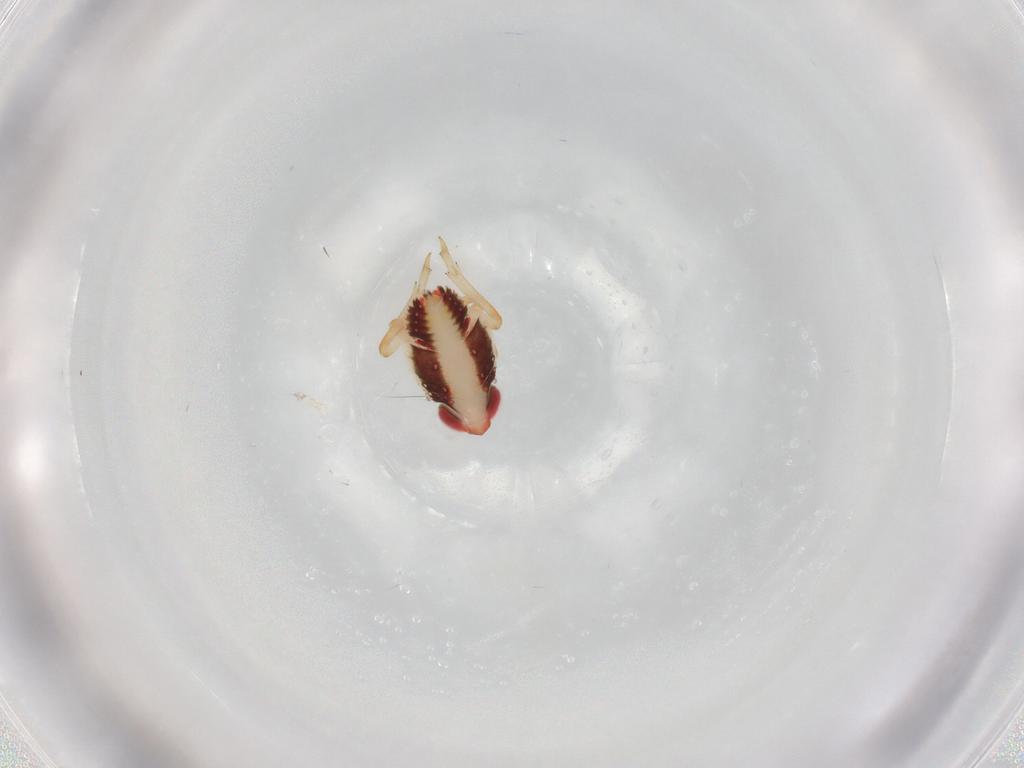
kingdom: Animalia
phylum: Arthropoda
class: Insecta
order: Hemiptera
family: Issidae
